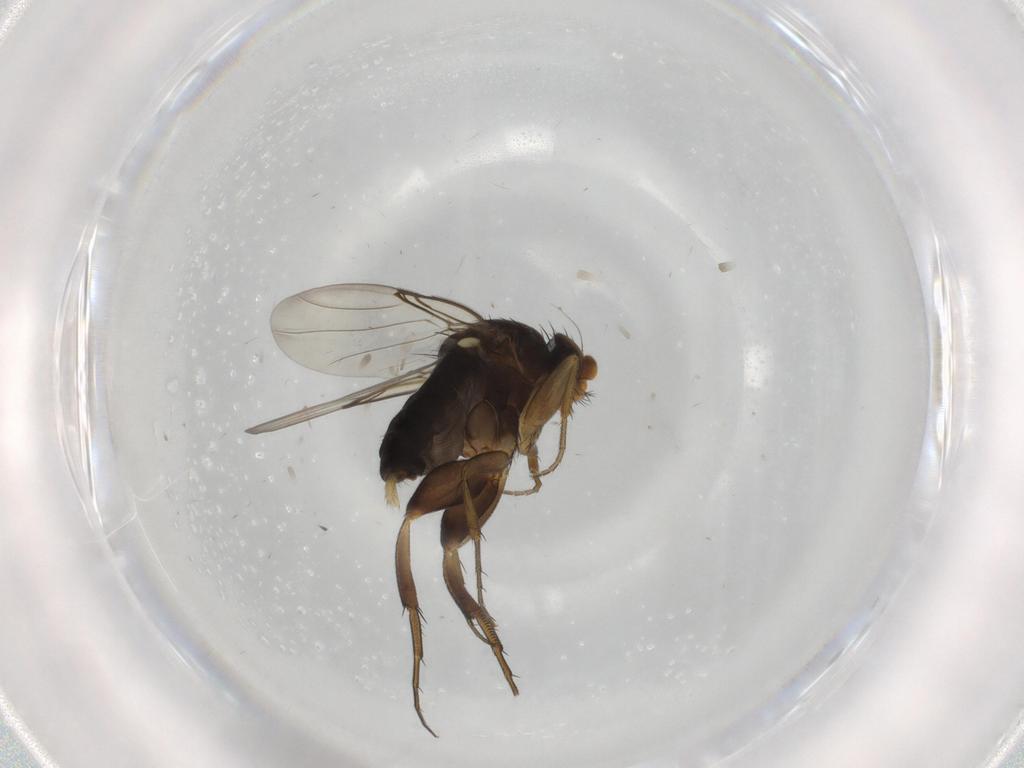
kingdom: Animalia
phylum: Arthropoda
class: Insecta
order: Diptera
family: Phoridae
